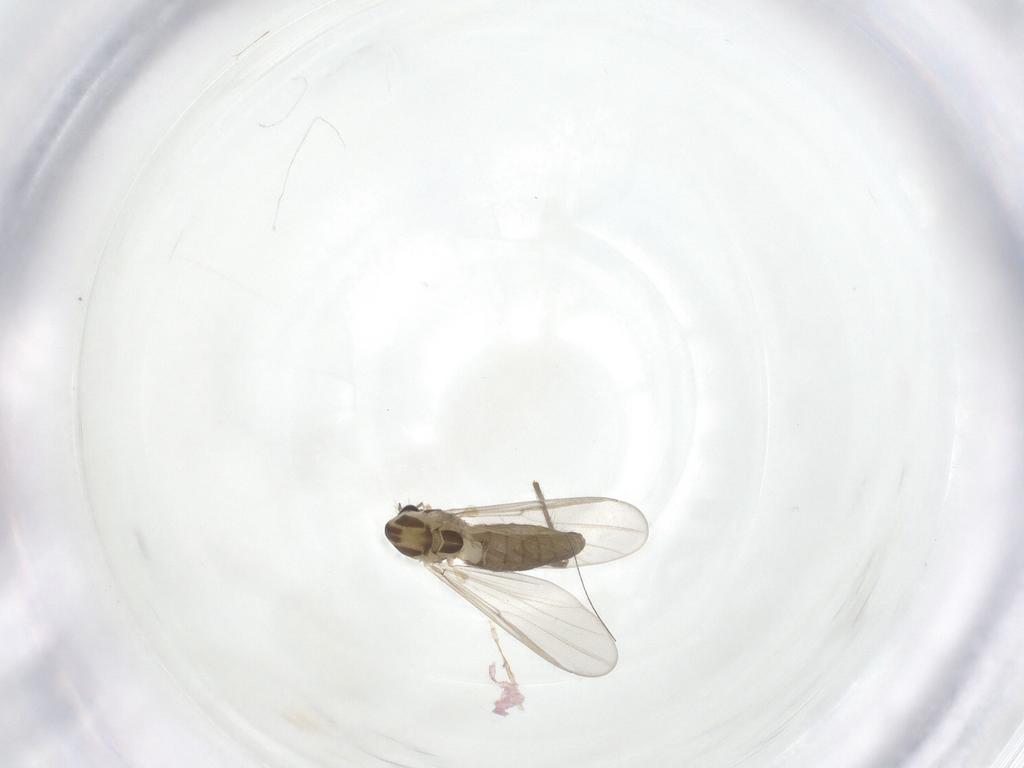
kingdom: Animalia
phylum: Arthropoda
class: Insecta
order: Diptera
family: Chironomidae
